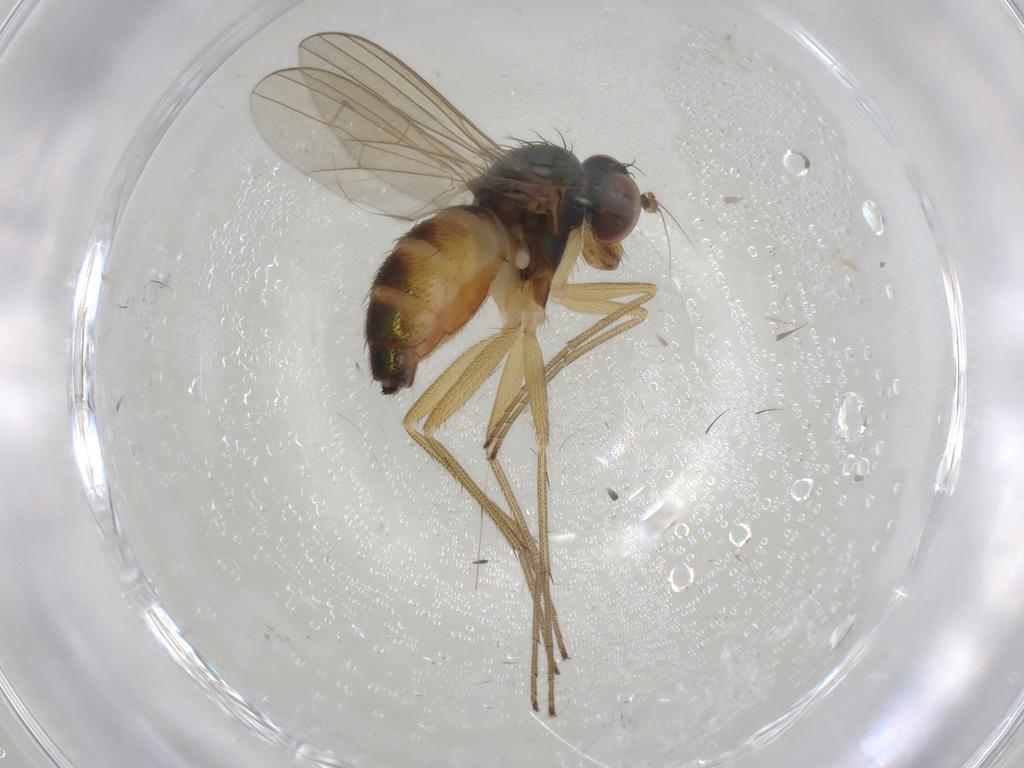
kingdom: Animalia
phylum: Arthropoda
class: Insecta
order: Diptera
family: Dolichopodidae
